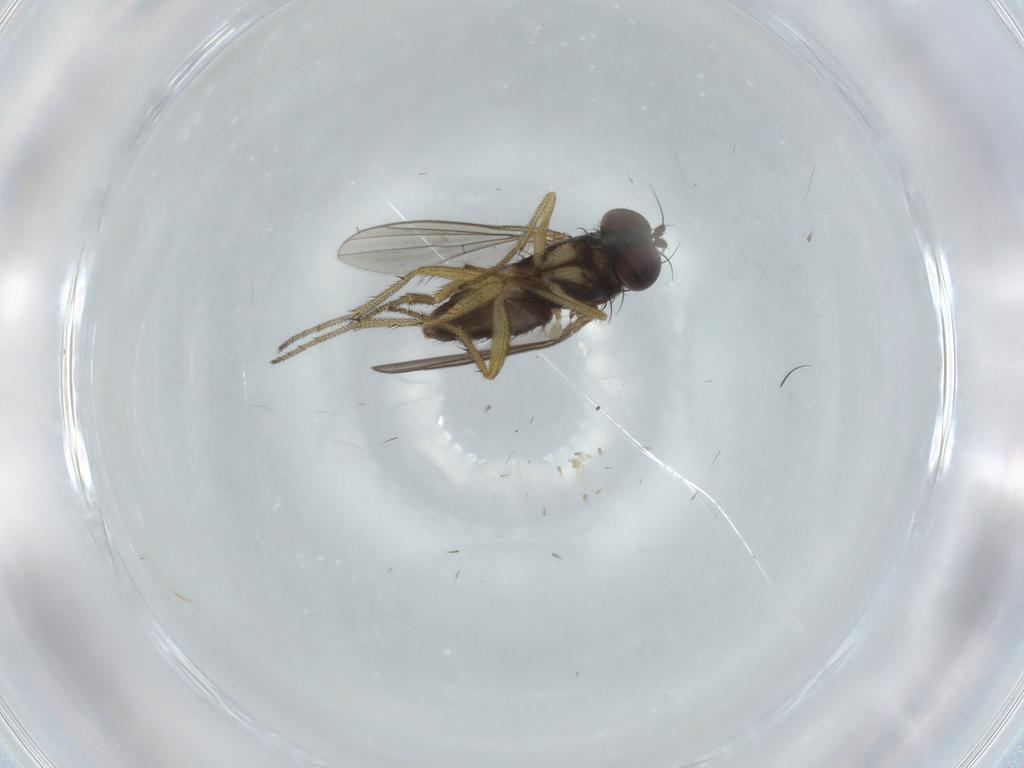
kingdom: Animalia
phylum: Arthropoda
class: Insecta
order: Diptera
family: Dolichopodidae
